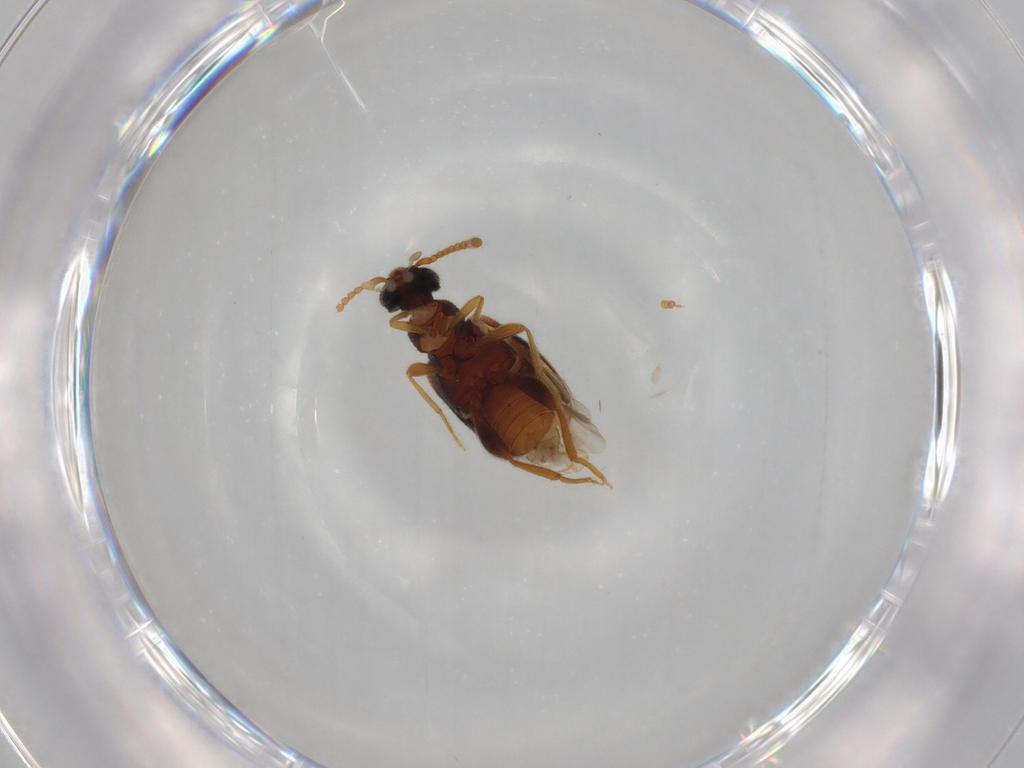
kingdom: Animalia
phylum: Arthropoda
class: Insecta
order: Coleoptera
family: Aderidae
